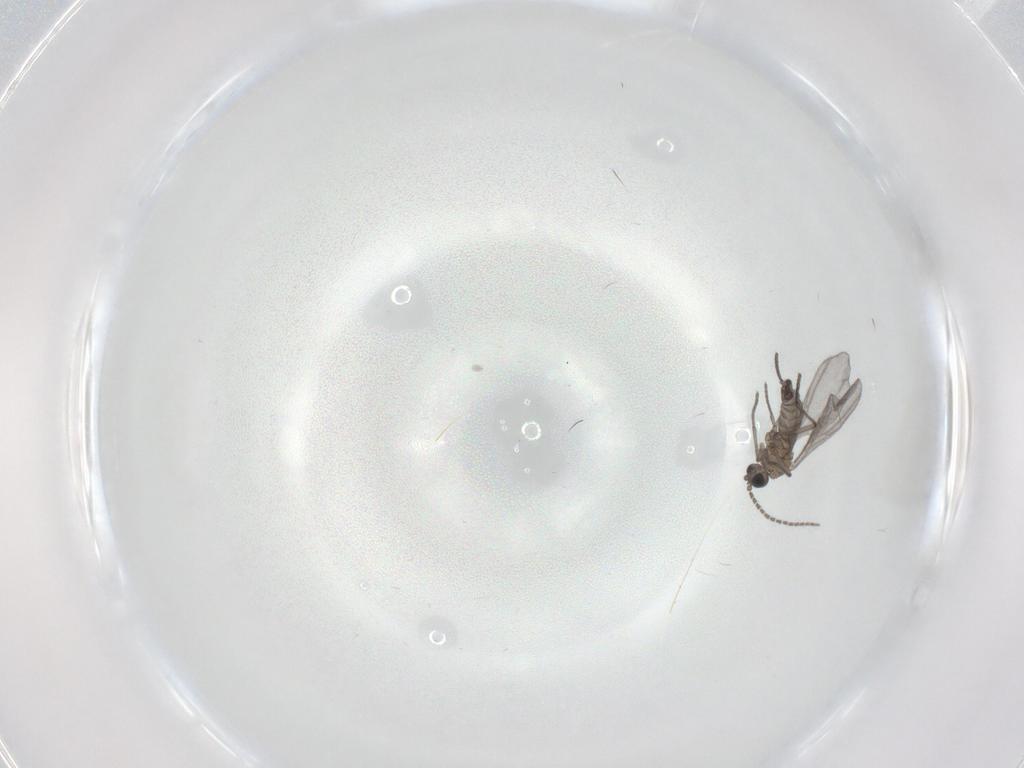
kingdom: Animalia
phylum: Arthropoda
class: Insecta
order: Diptera
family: Sciaridae
